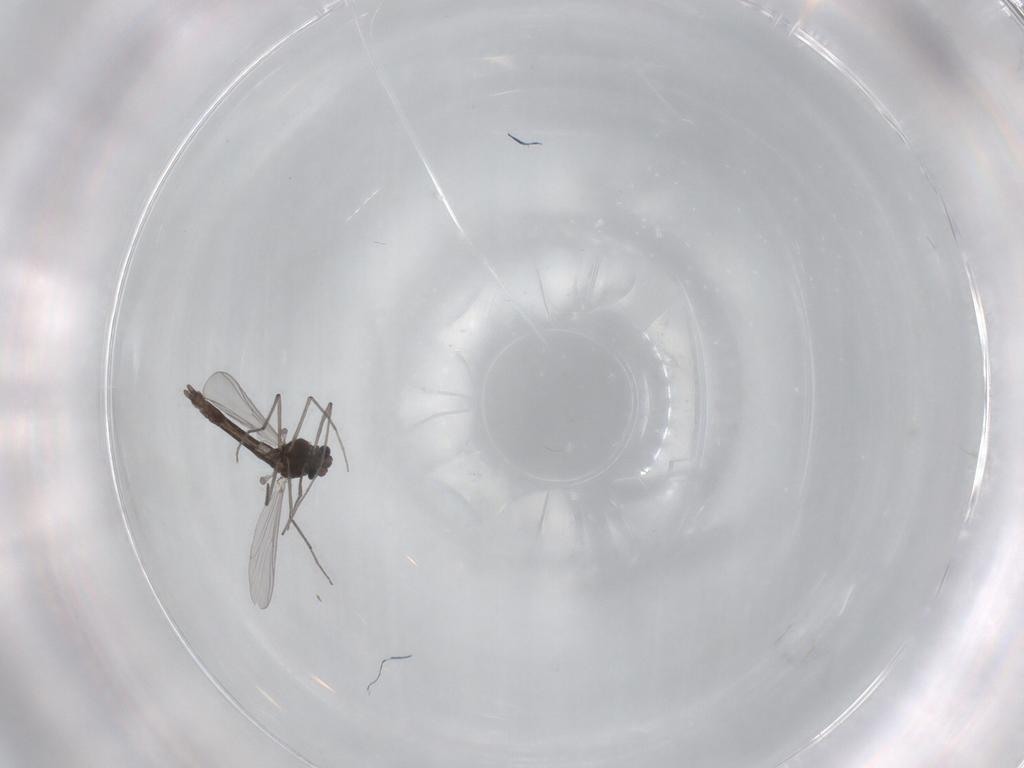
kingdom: Animalia
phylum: Arthropoda
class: Insecta
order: Diptera
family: Chironomidae
